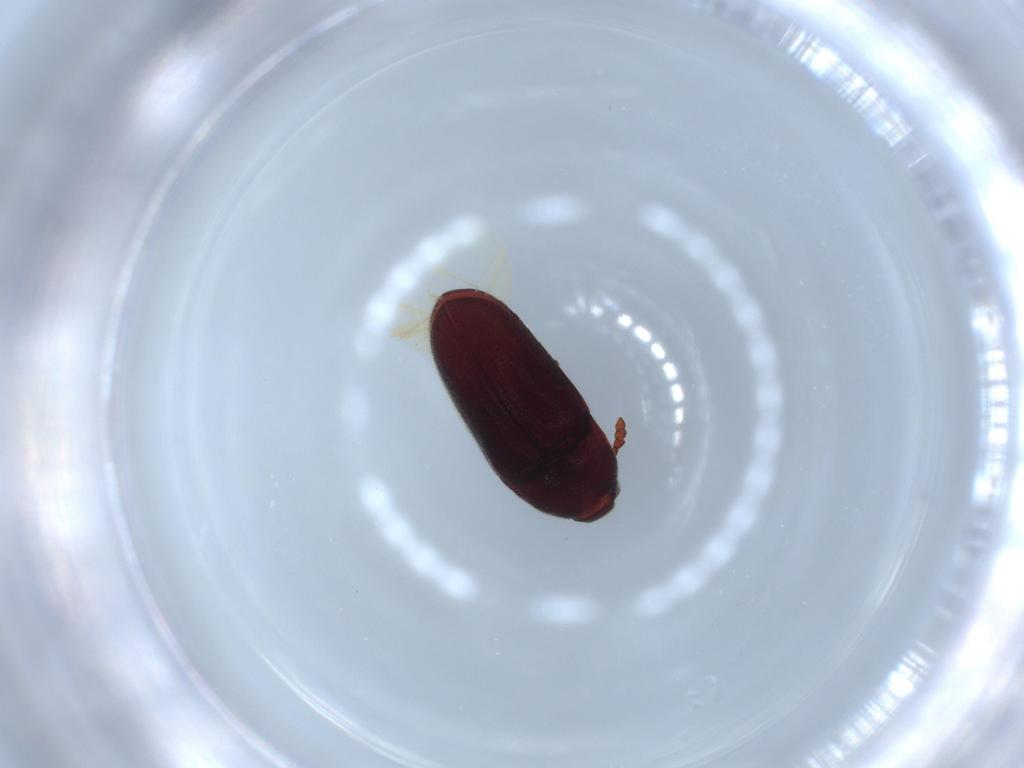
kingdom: Animalia
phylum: Arthropoda
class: Insecta
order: Coleoptera
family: Throscidae
